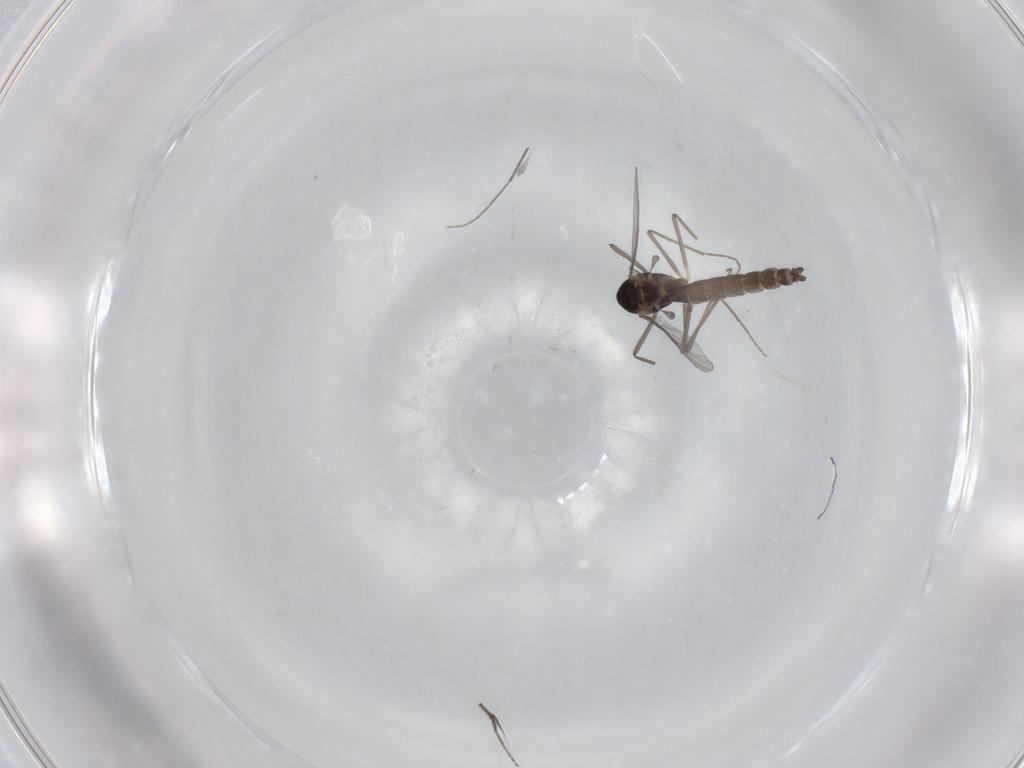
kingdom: Animalia
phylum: Arthropoda
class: Insecta
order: Diptera
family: Chironomidae
